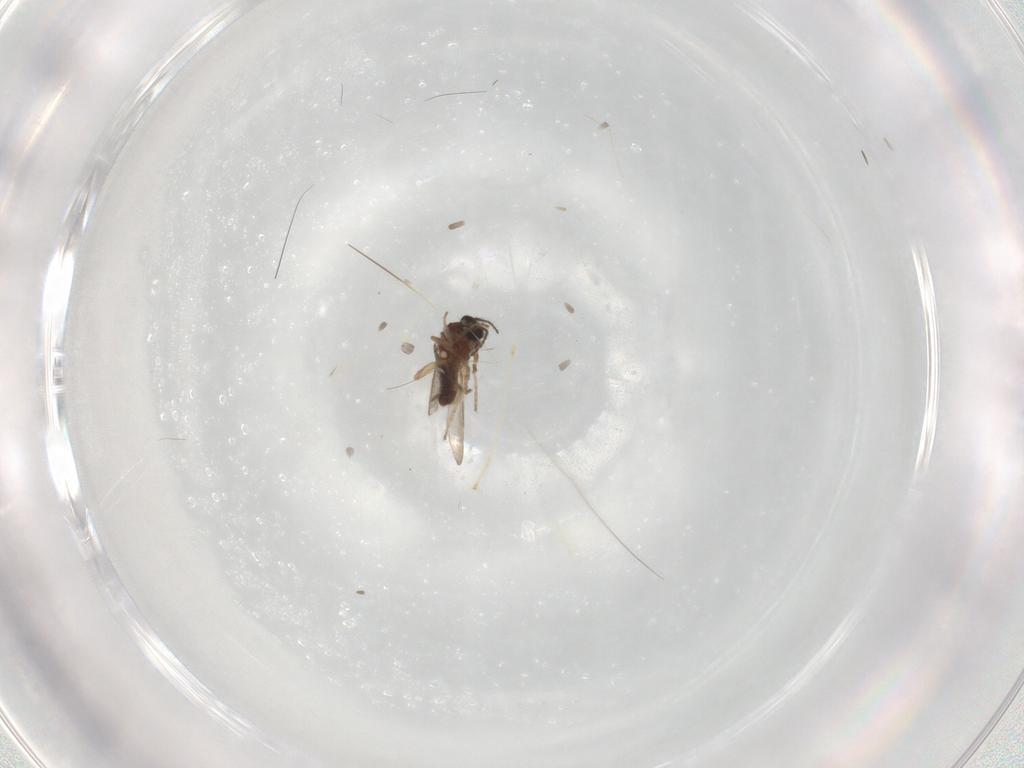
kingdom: Animalia
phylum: Arthropoda
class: Insecta
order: Diptera
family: Ceratopogonidae
